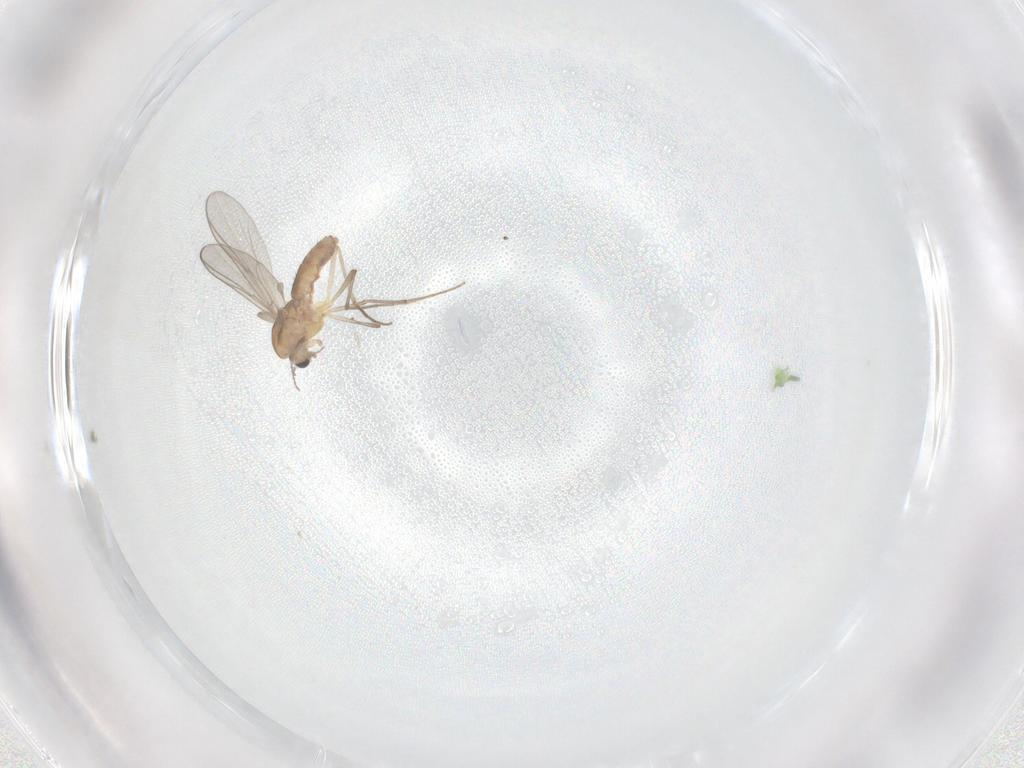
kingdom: Animalia
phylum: Arthropoda
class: Insecta
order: Diptera
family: Chironomidae
